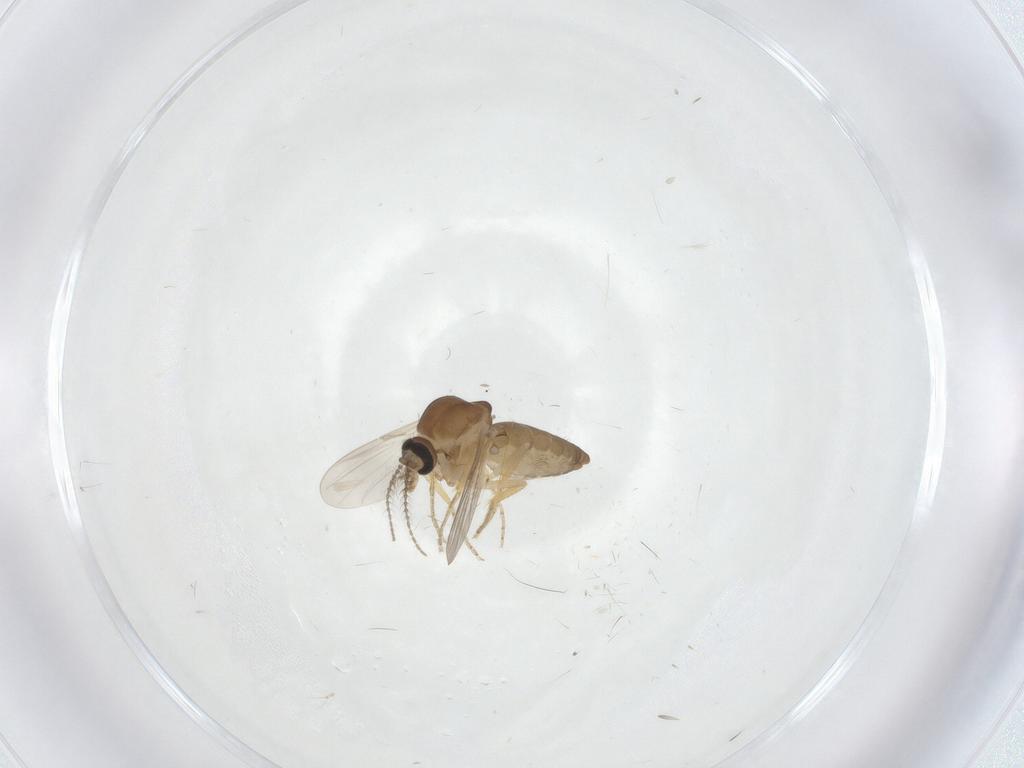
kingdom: Animalia
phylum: Arthropoda
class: Insecta
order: Diptera
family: Ceratopogonidae
